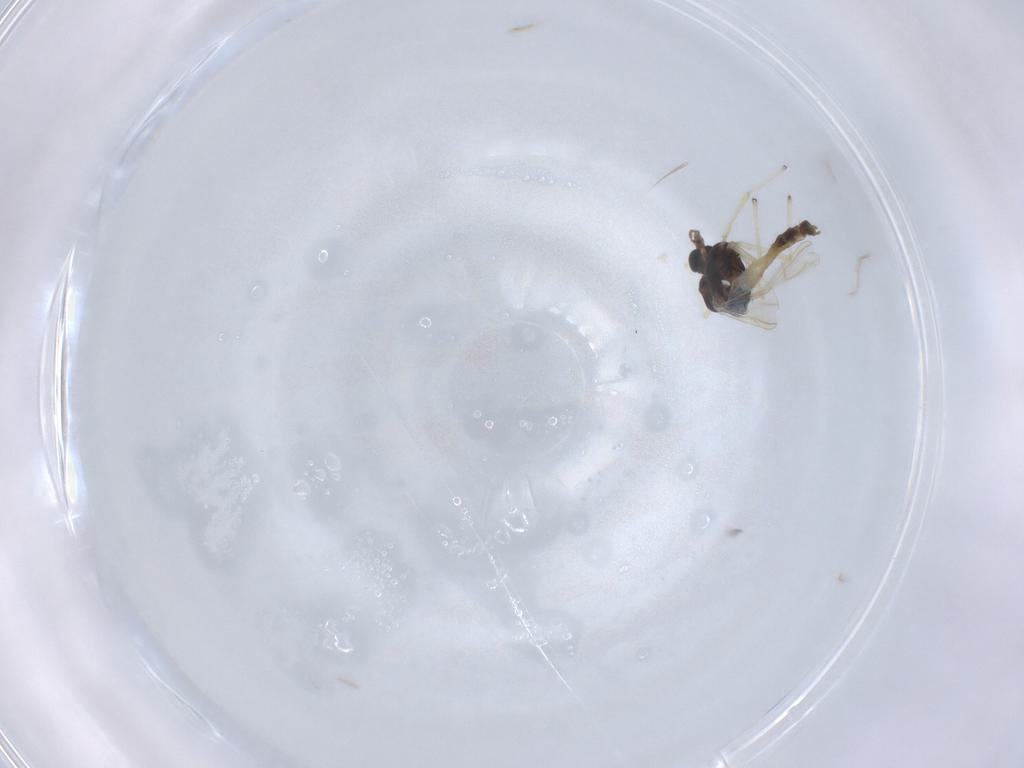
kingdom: Animalia
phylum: Arthropoda
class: Insecta
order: Diptera
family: Chironomidae
